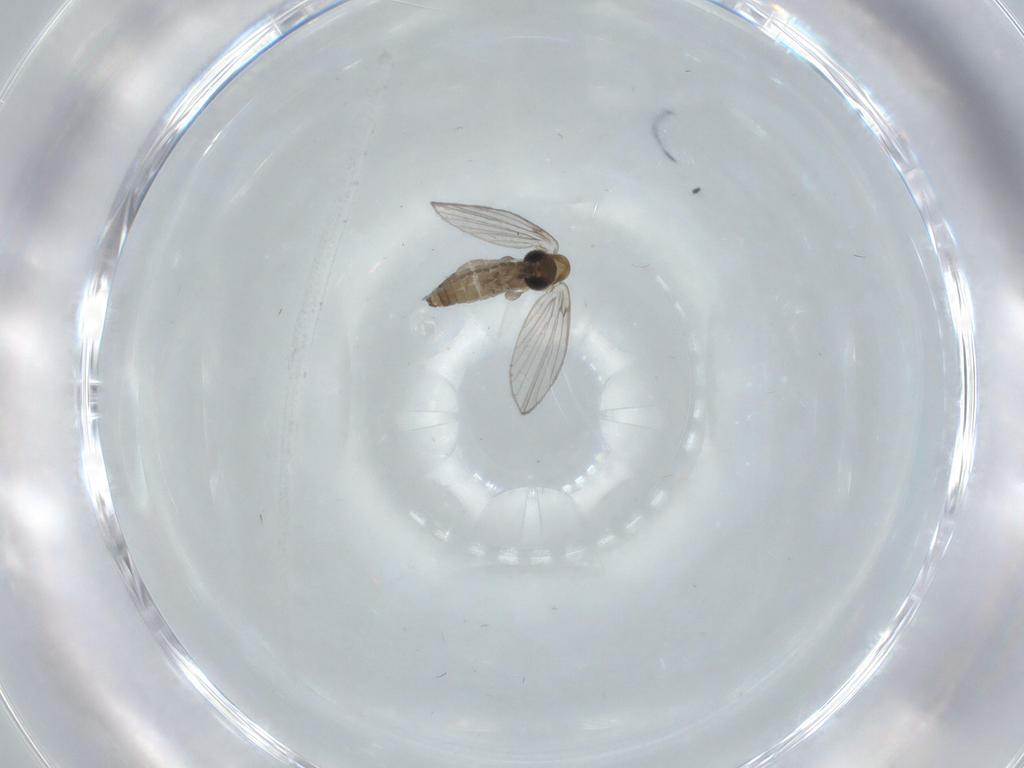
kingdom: Animalia
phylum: Arthropoda
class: Insecta
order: Diptera
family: Psychodidae
